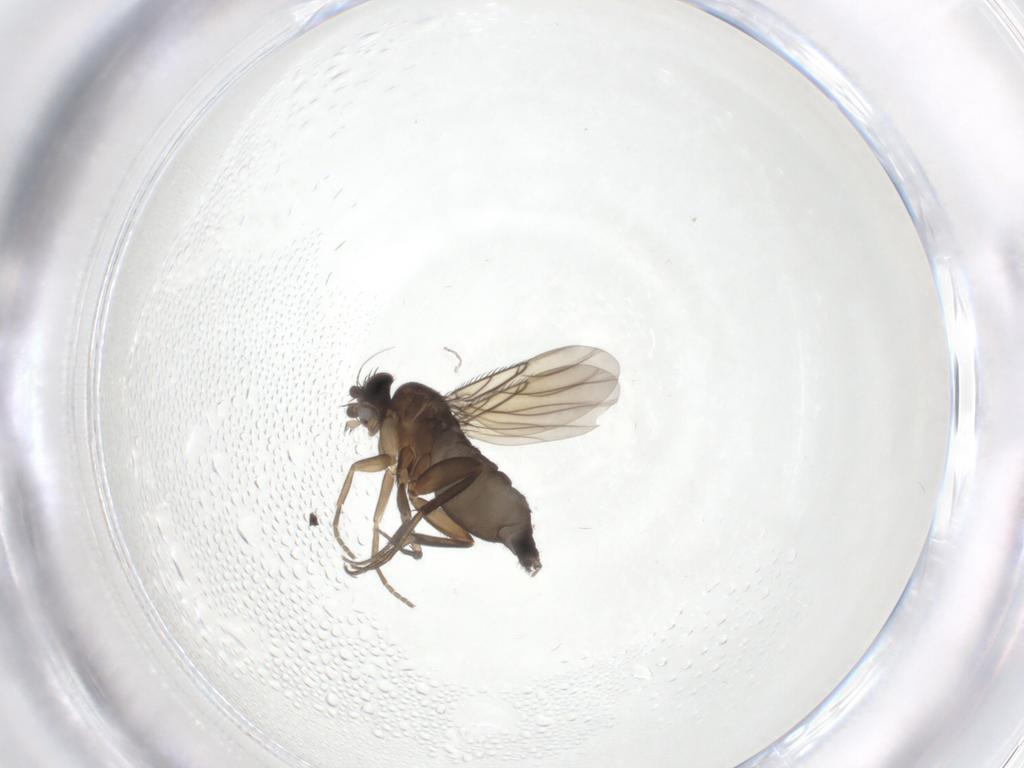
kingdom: Animalia
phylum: Arthropoda
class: Insecta
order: Diptera
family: Phoridae
